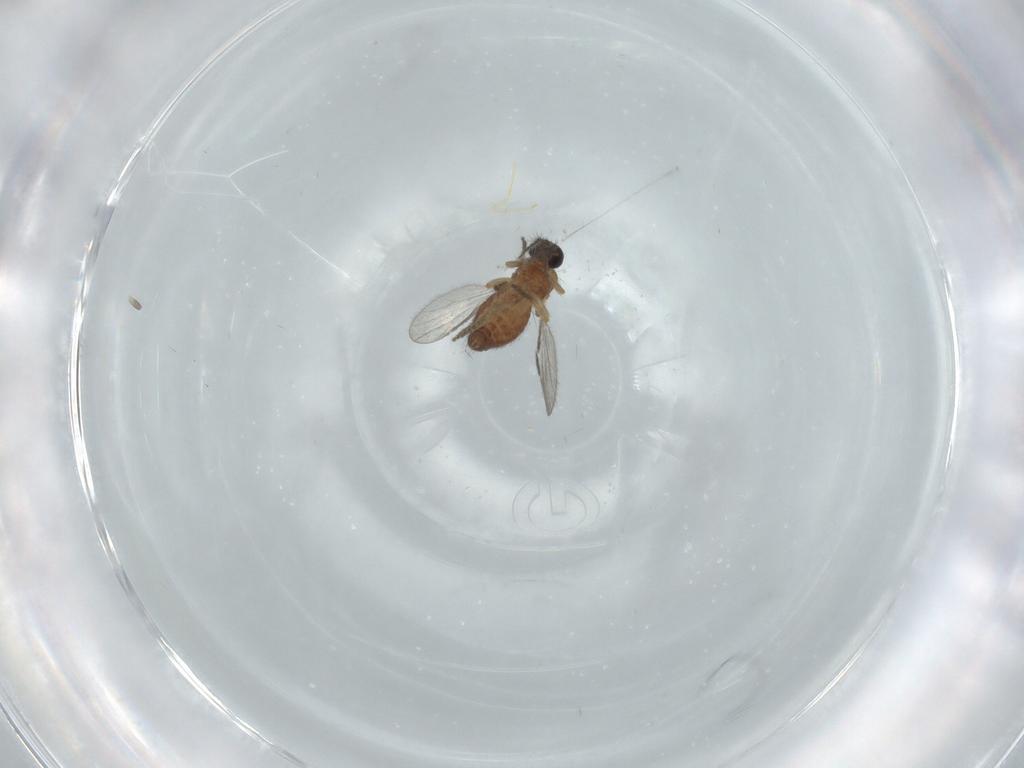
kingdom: Animalia
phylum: Arthropoda
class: Insecta
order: Diptera
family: Ceratopogonidae
